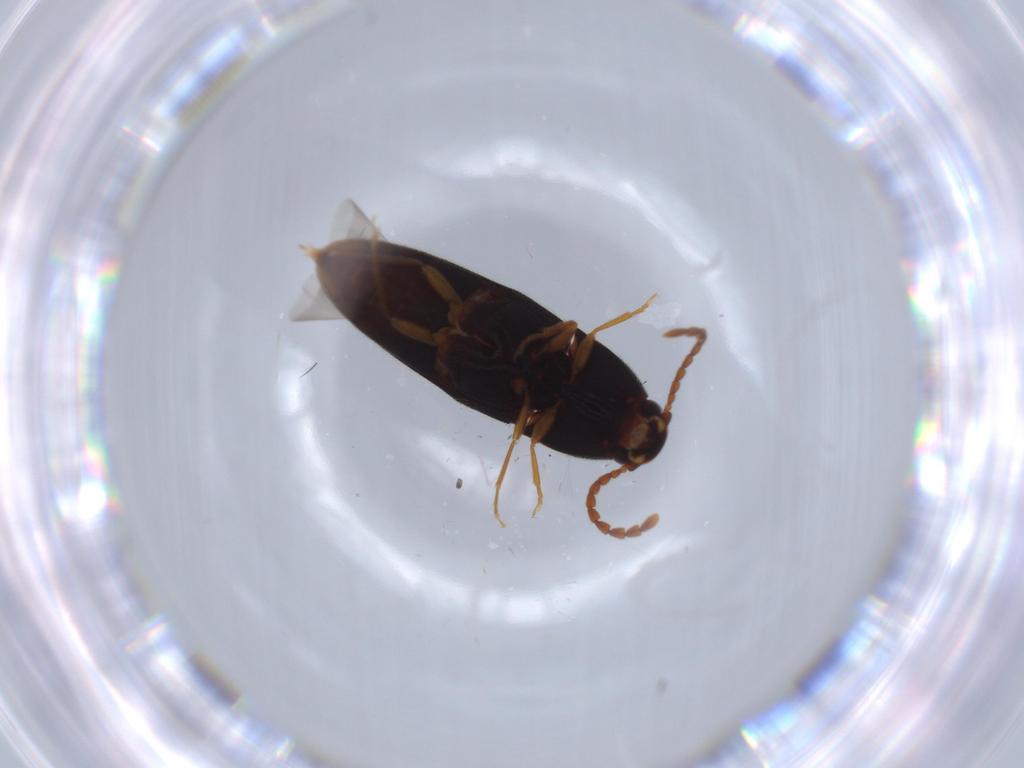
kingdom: Animalia
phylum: Arthropoda
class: Insecta
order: Coleoptera
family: Elateridae
